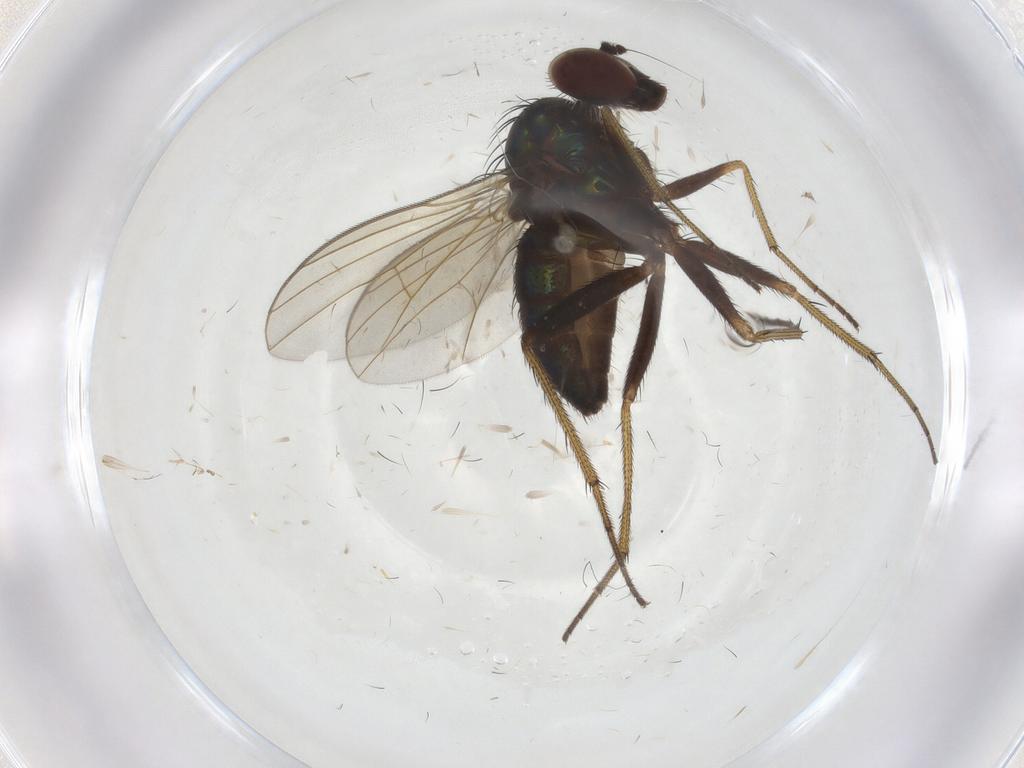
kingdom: Animalia
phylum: Arthropoda
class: Insecta
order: Diptera
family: Dolichopodidae
